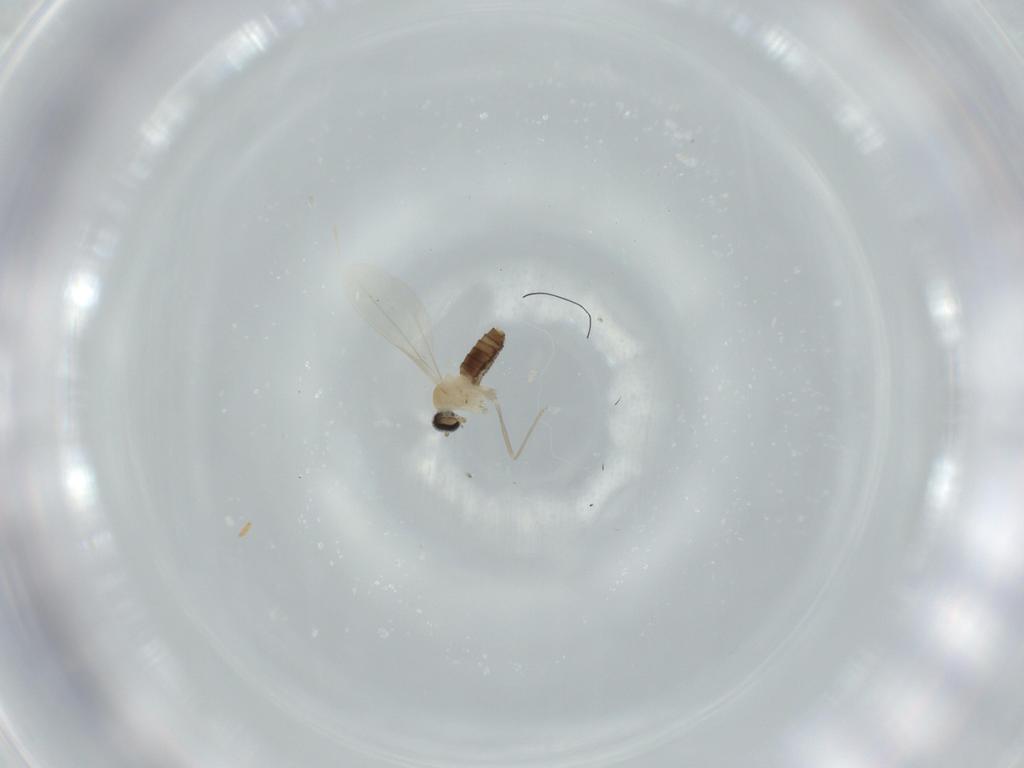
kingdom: Animalia
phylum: Arthropoda
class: Insecta
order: Diptera
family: Cecidomyiidae
